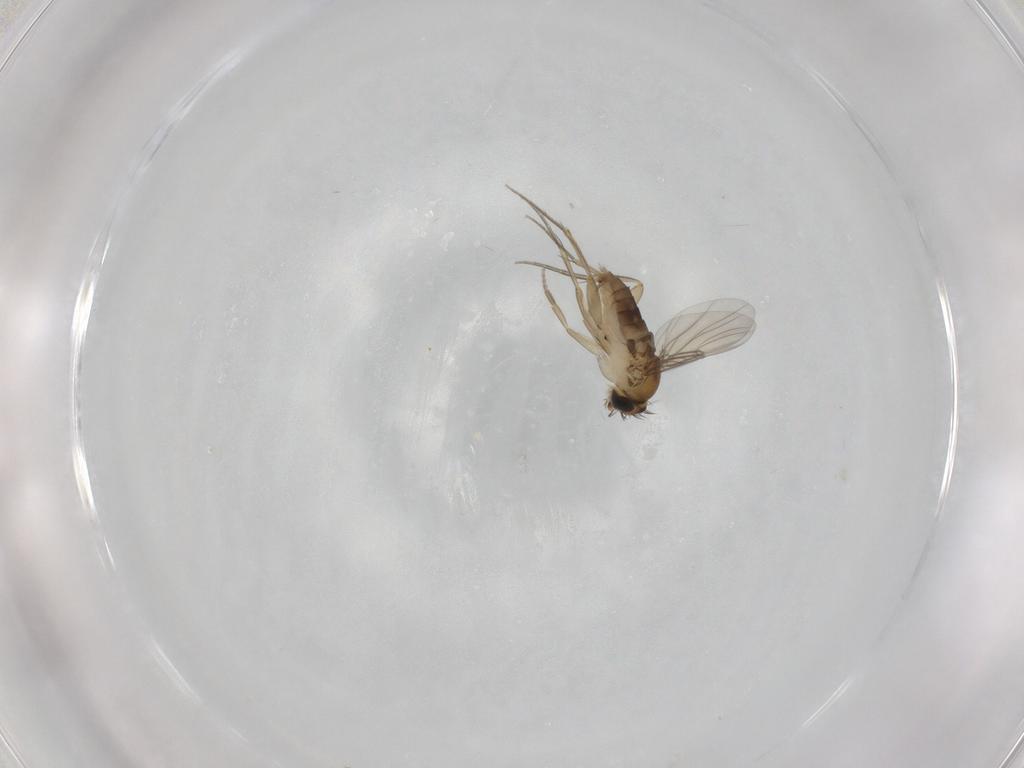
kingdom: Animalia
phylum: Arthropoda
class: Insecta
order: Diptera
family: Phoridae
